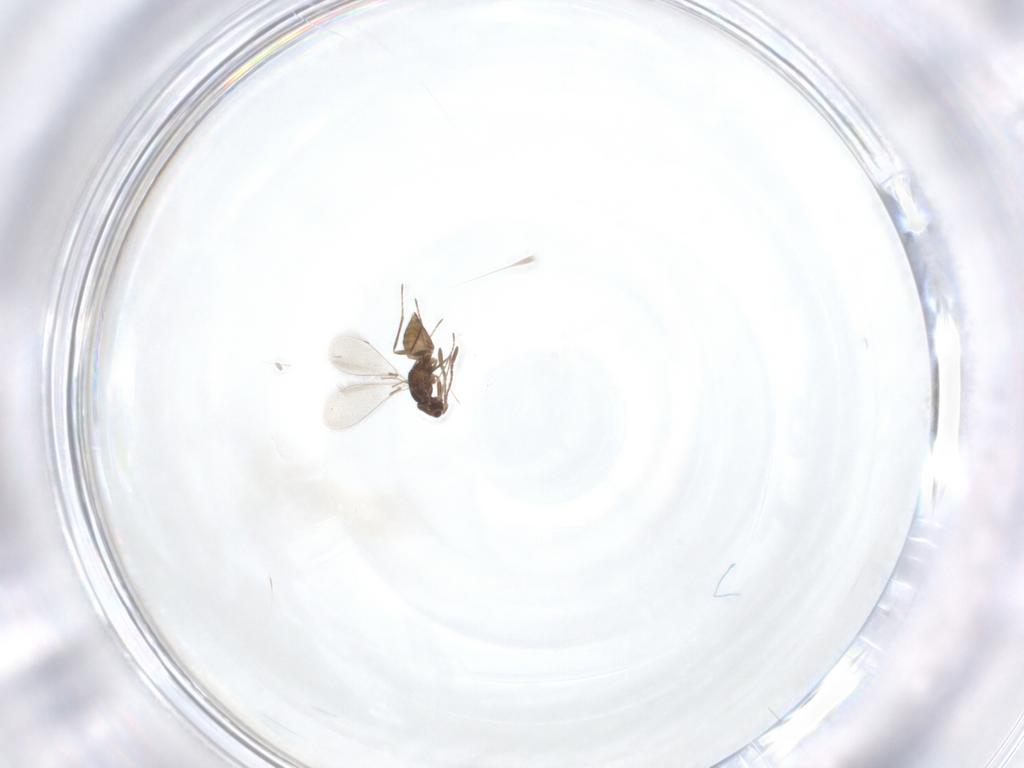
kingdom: Animalia
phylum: Arthropoda
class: Insecta
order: Hymenoptera
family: Mymaridae
